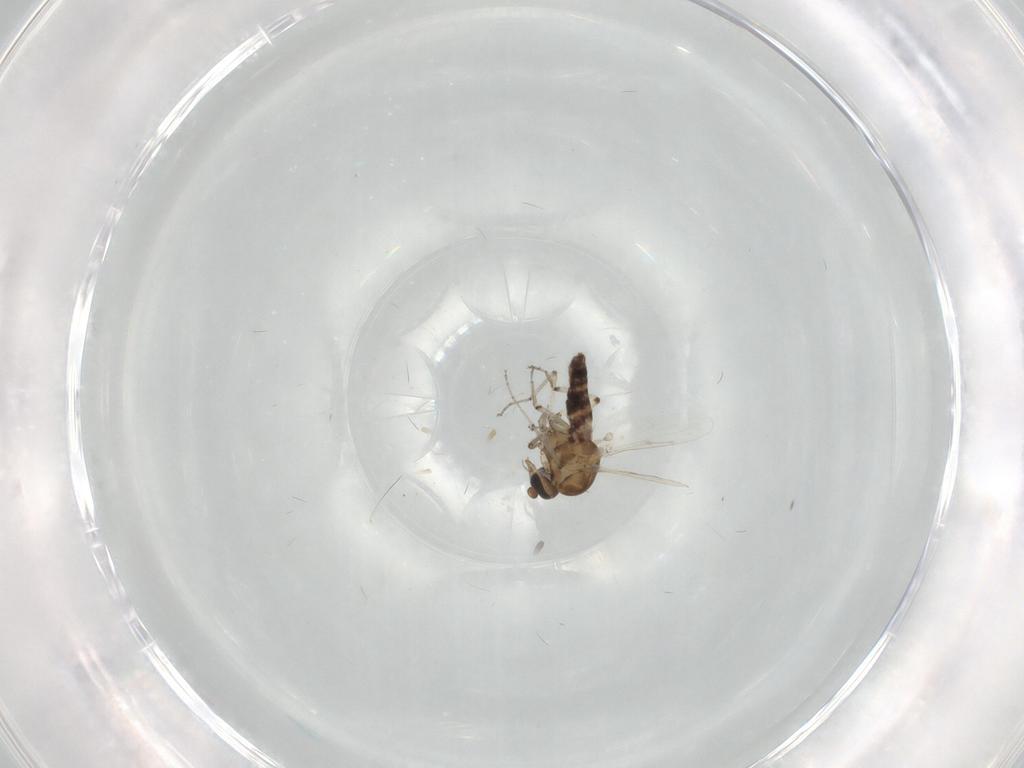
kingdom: Animalia
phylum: Arthropoda
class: Insecta
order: Diptera
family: Ceratopogonidae
